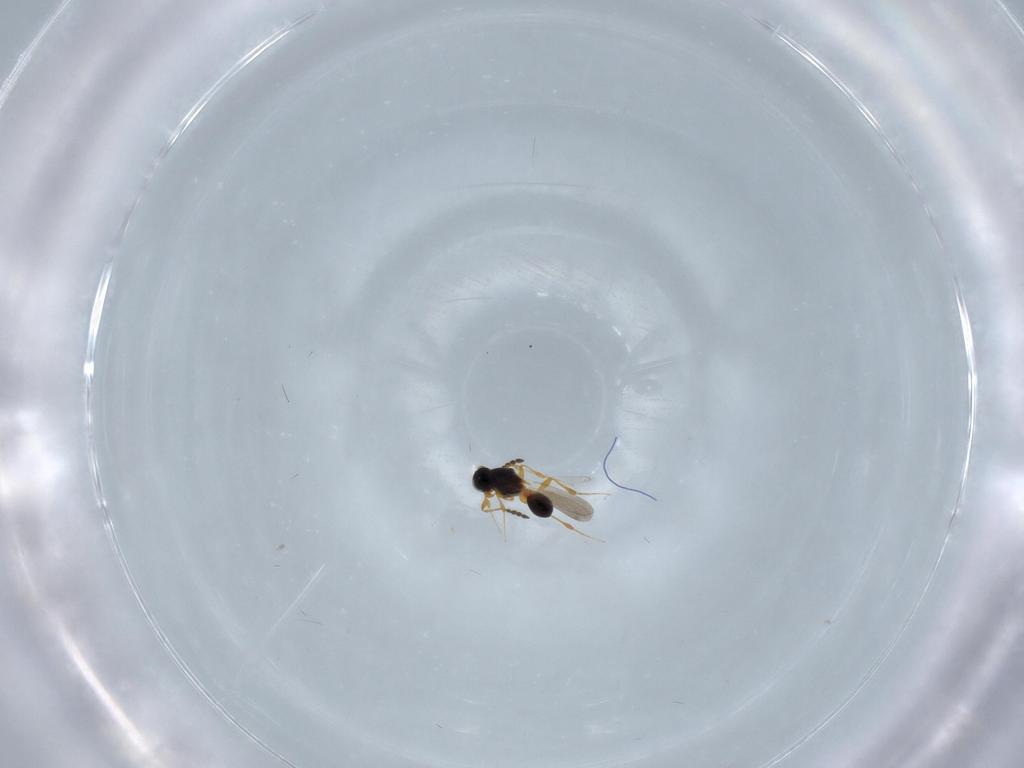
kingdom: Animalia
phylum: Arthropoda
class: Insecta
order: Hymenoptera
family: Platygastridae
